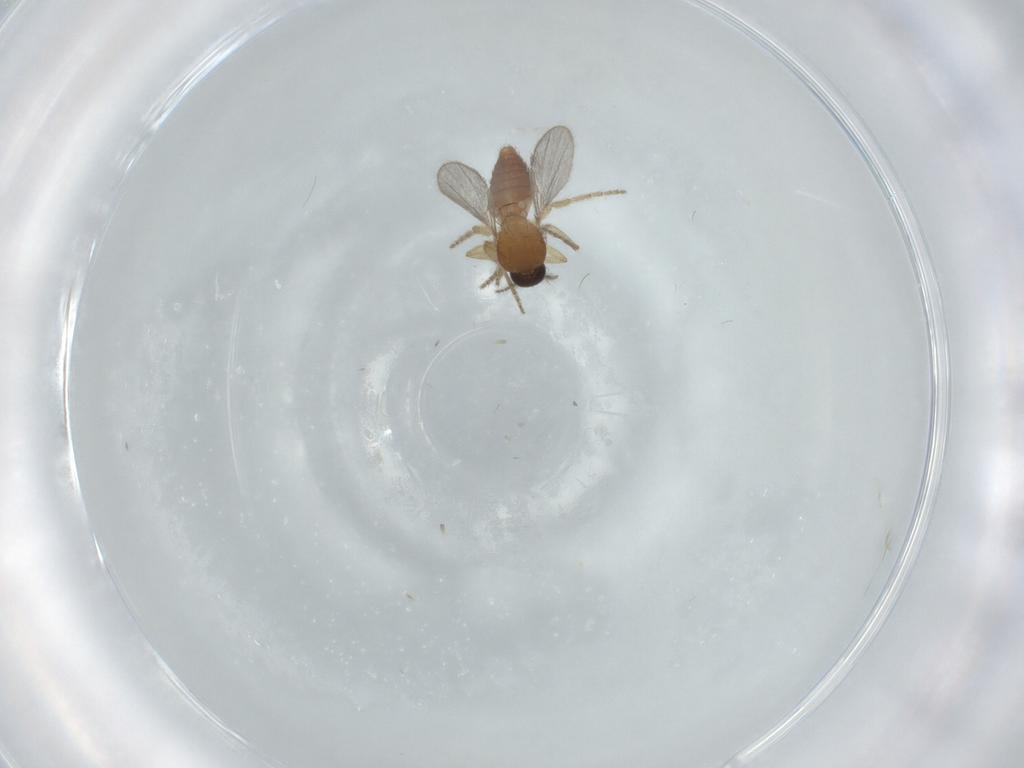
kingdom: Animalia
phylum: Arthropoda
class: Insecta
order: Diptera
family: Ceratopogonidae
